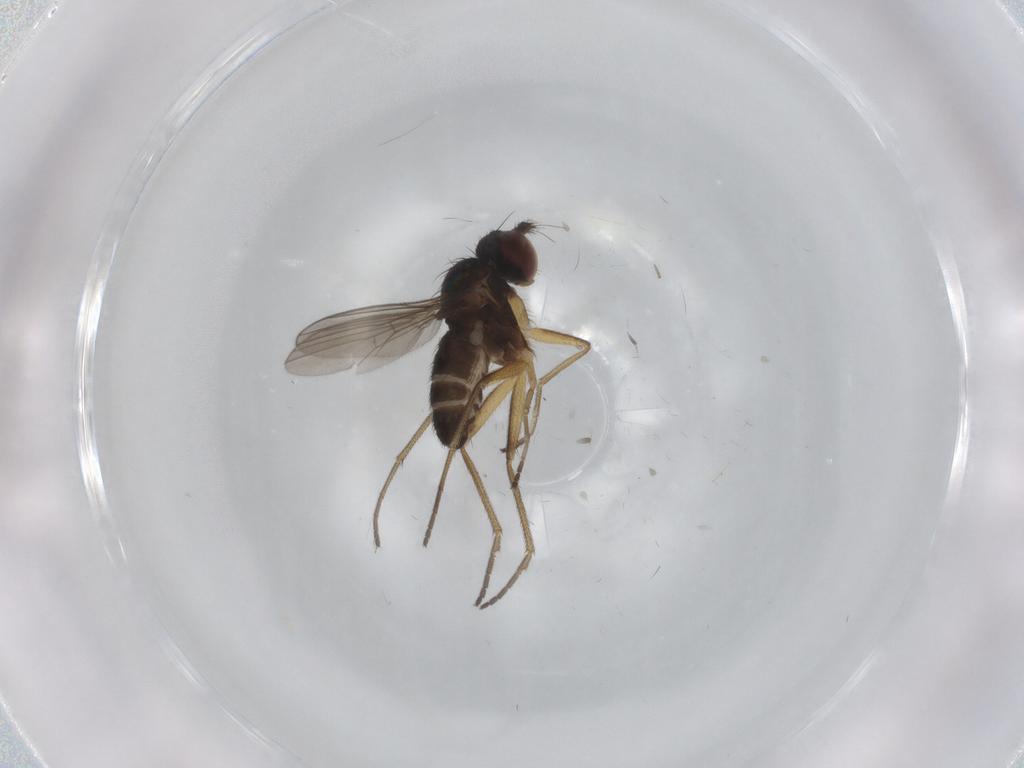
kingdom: Animalia
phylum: Arthropoda
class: Insecta
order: Diptera
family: Dolichopodidae
